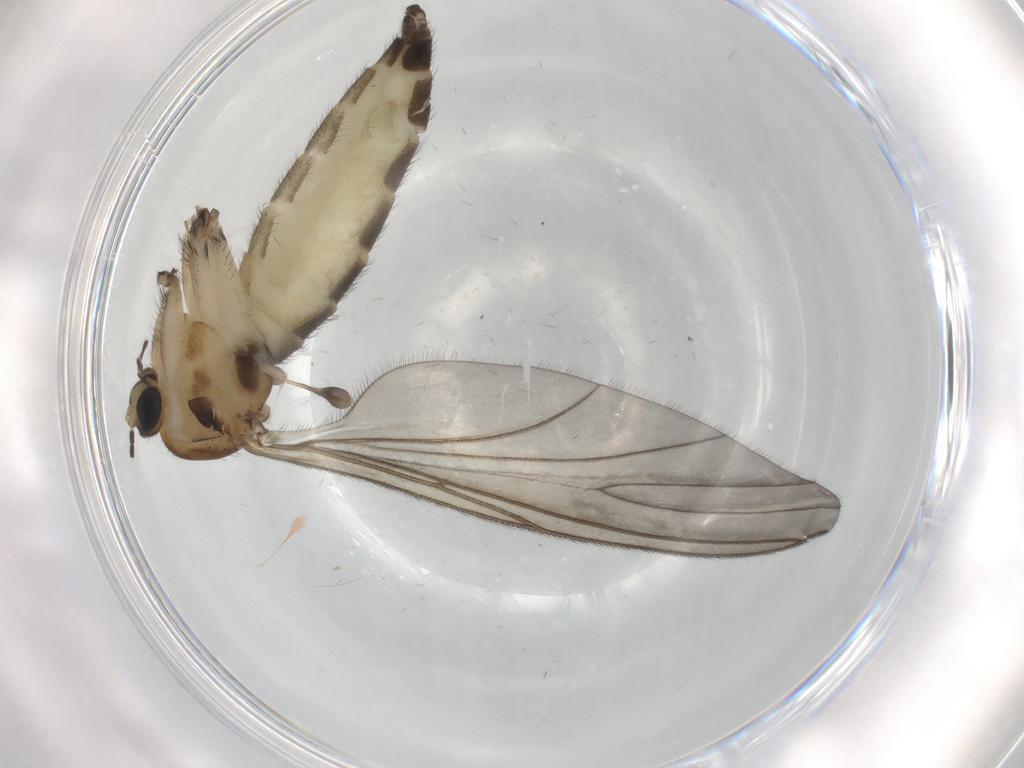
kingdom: Animalia
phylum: Arthropoda
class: Insecta
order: Diptera
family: Sciaridae
